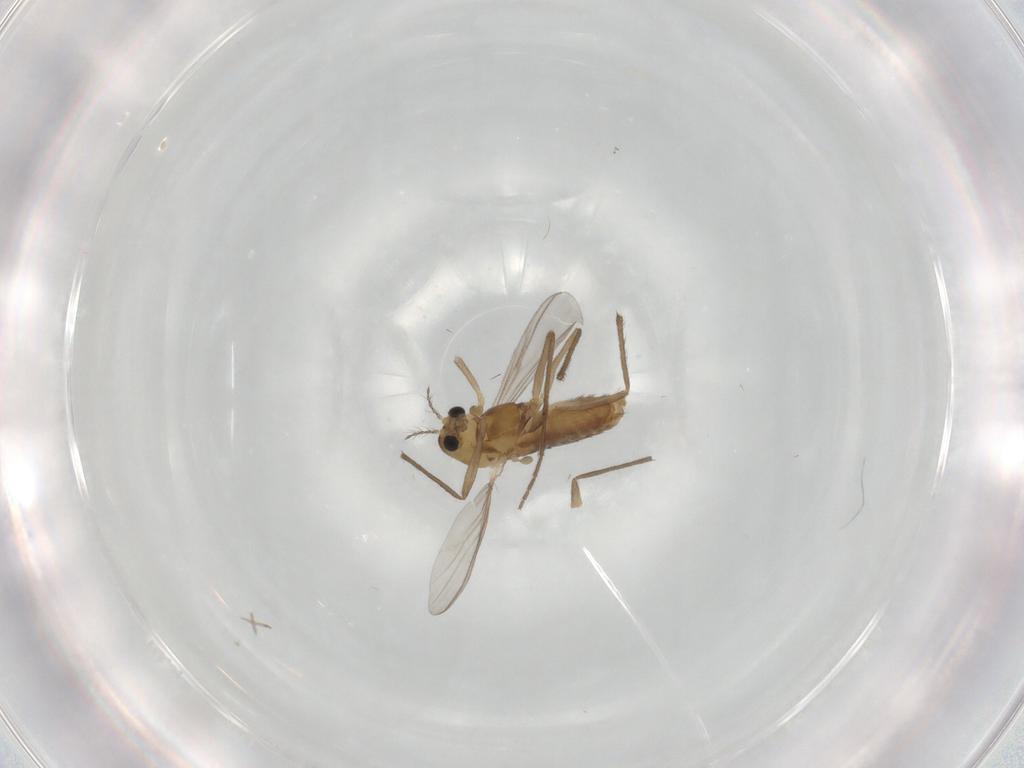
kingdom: Animalia
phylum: Arthropoda
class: Insecta
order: Diptera
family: Chironomidae
